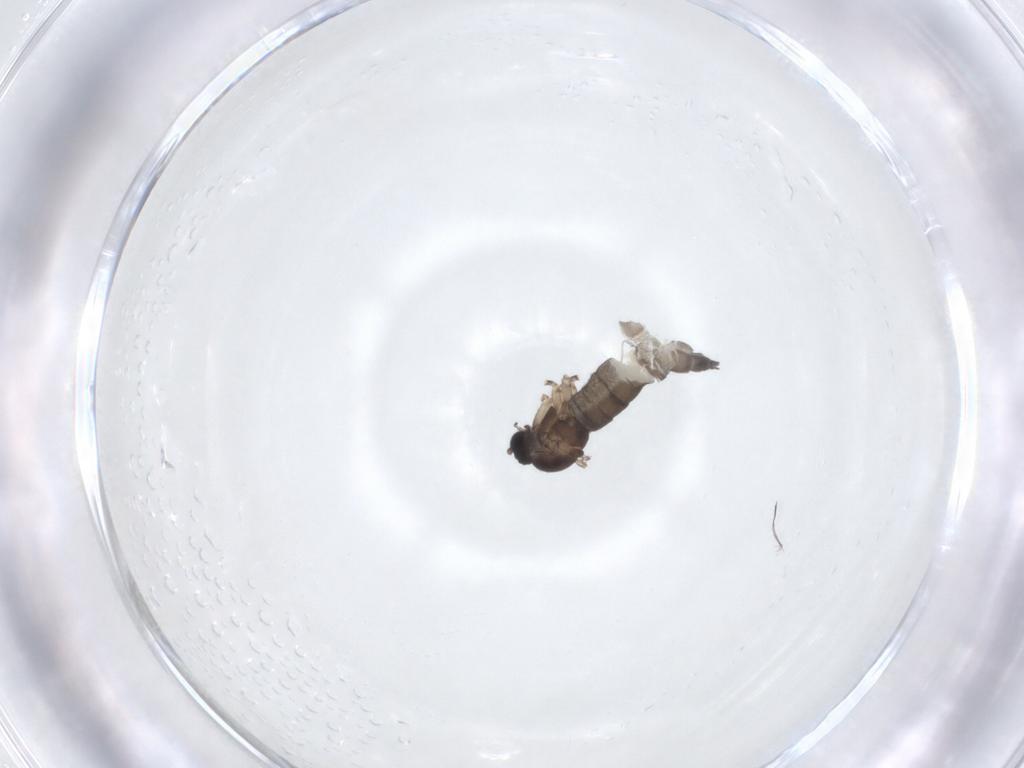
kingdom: Animalia
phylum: Arthropoda
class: Insecta
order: Diptera
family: Sciaridae
